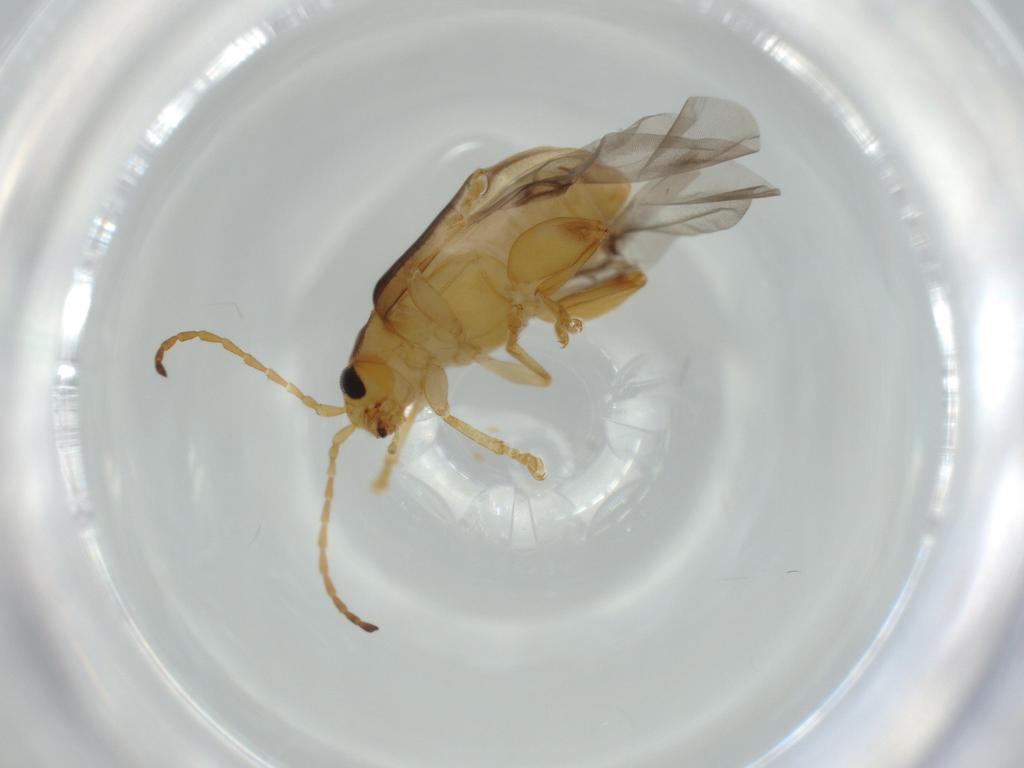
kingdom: Animalia
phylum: Arthropoda
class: Insecta
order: Coleoptera
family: Chrysomelidae
